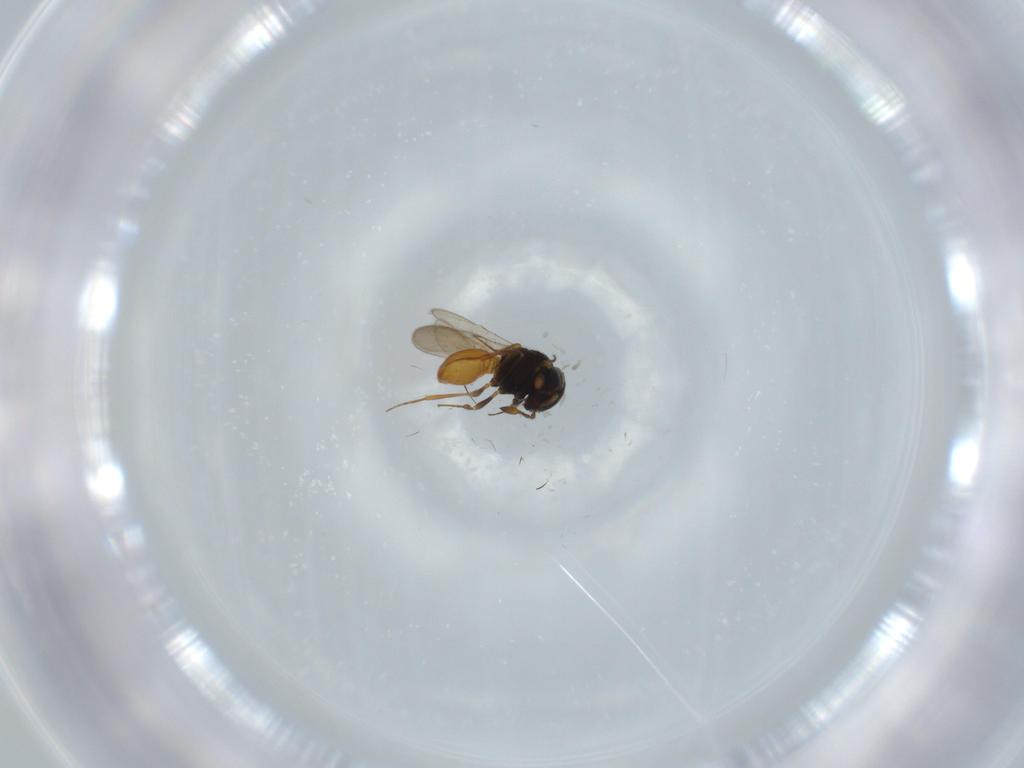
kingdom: Animalia
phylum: Arthropoda
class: Insecta
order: Hymenoptera
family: Scelionidae
